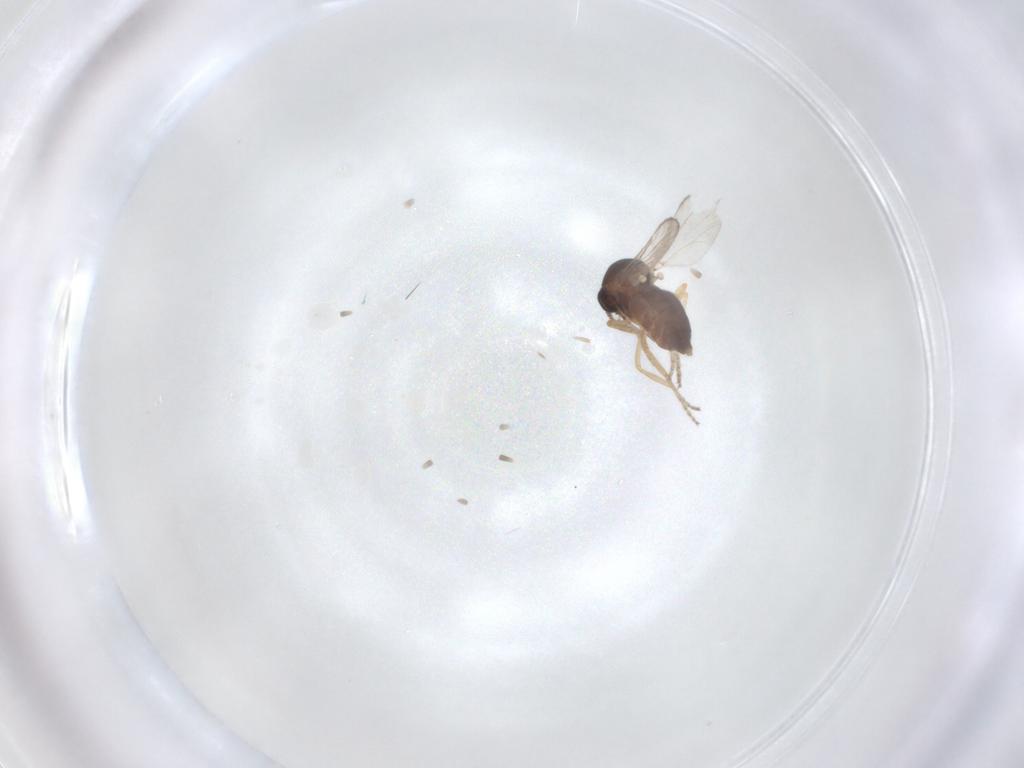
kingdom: Animalia
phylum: Arthropoda
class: Insecta
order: Diptera
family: Ceratopogonidae
